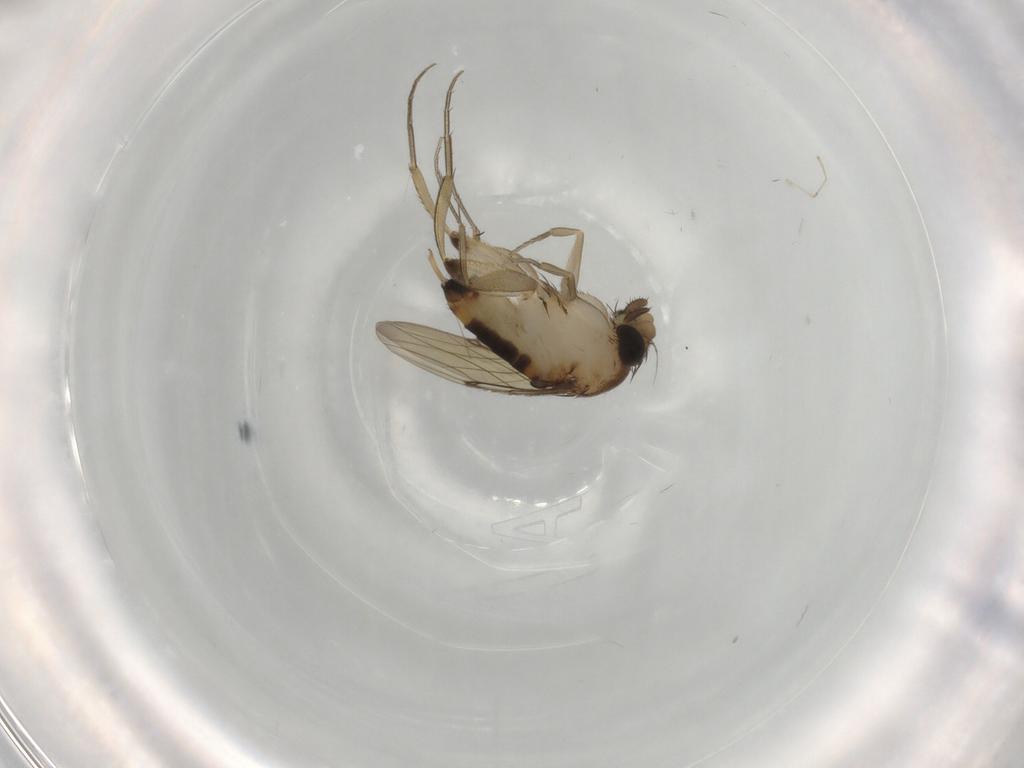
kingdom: Animalia
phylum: Arthropoda
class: Insecta
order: Diptera
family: Phoridae
